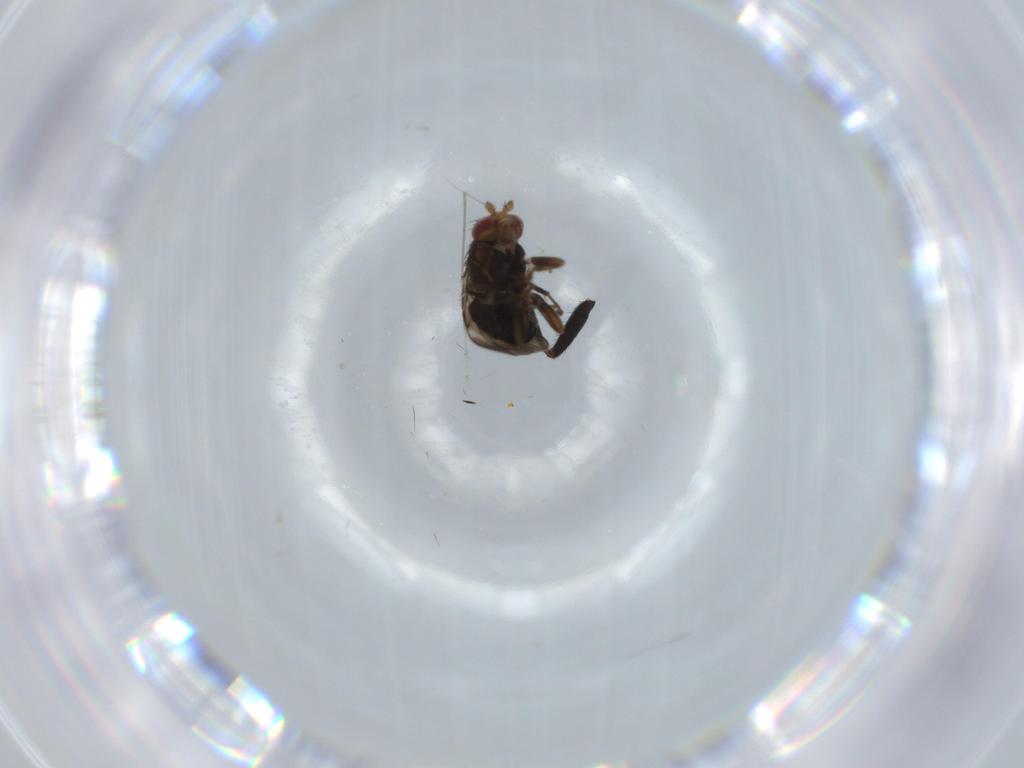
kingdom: Animalia
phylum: Arthropoda
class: Insecta
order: Diptera
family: Sphaeroceridae
